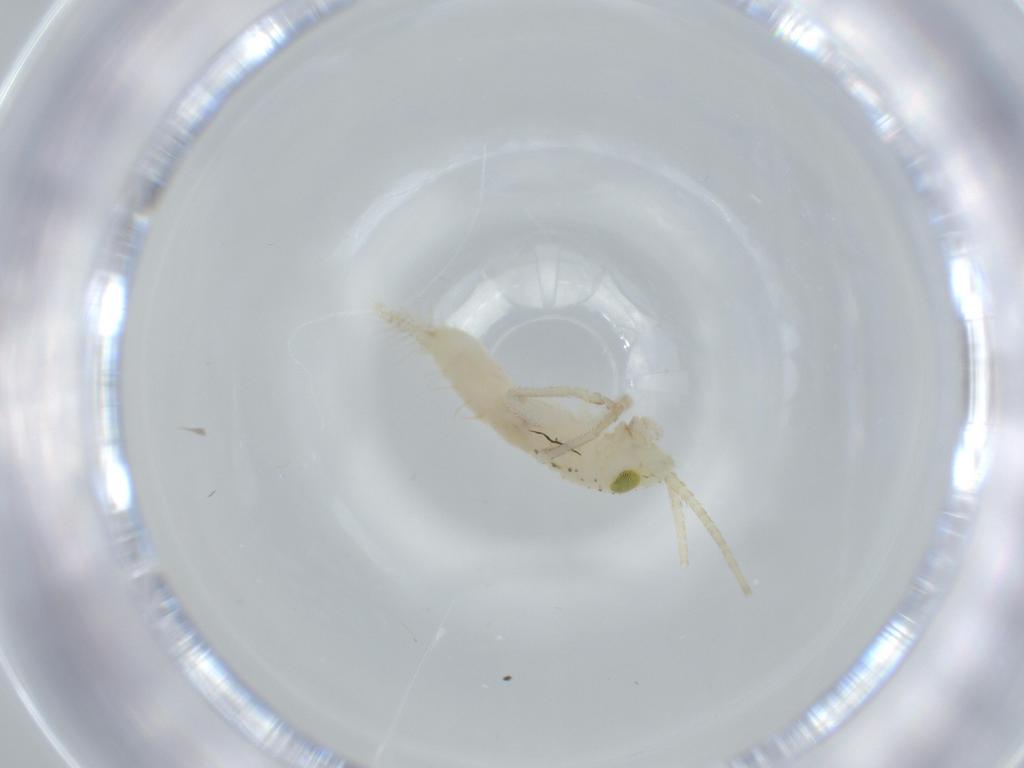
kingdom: Animalia
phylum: Arthropoda
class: Insecta
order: Orthoptera
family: Trigonidiidae
